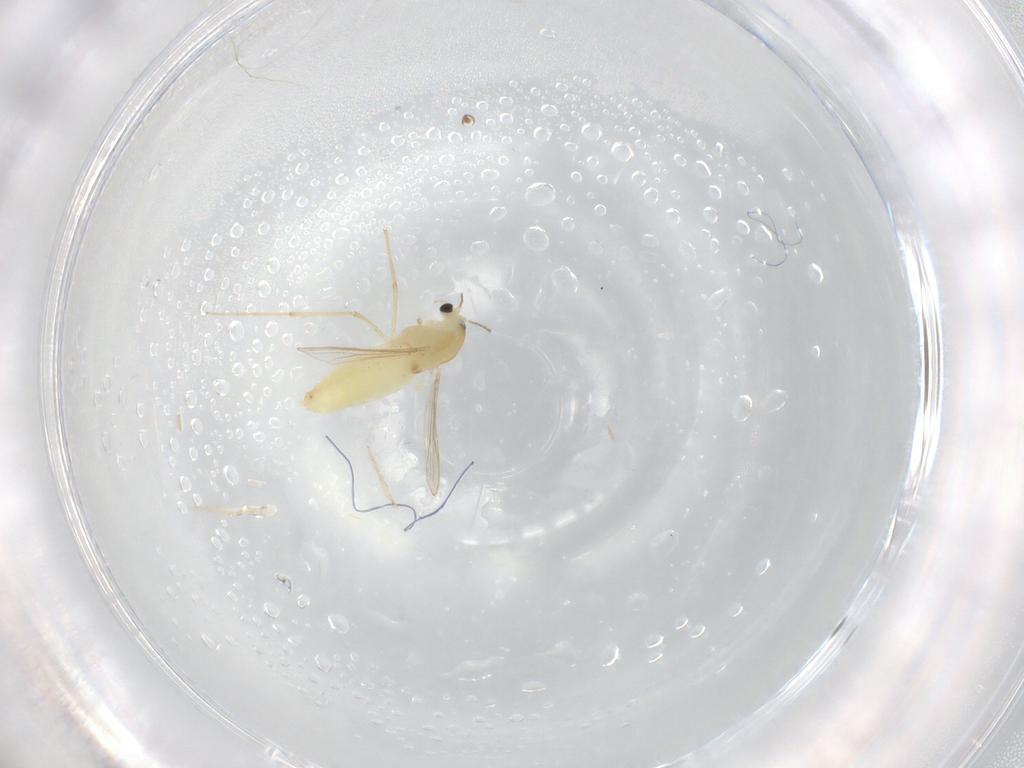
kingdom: Animalia
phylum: Arthropoda
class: Insecta
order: Diptera
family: Chironomidae
